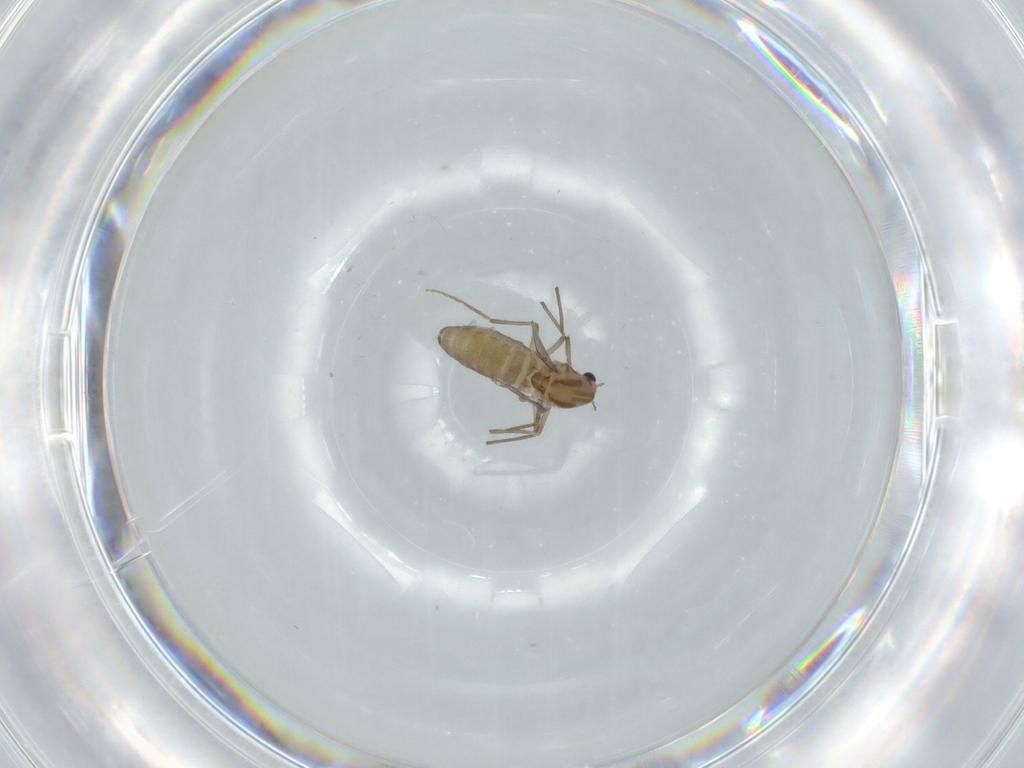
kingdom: Animalia
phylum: Arthropoda
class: Insecta
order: Diptera
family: Chironomidae
